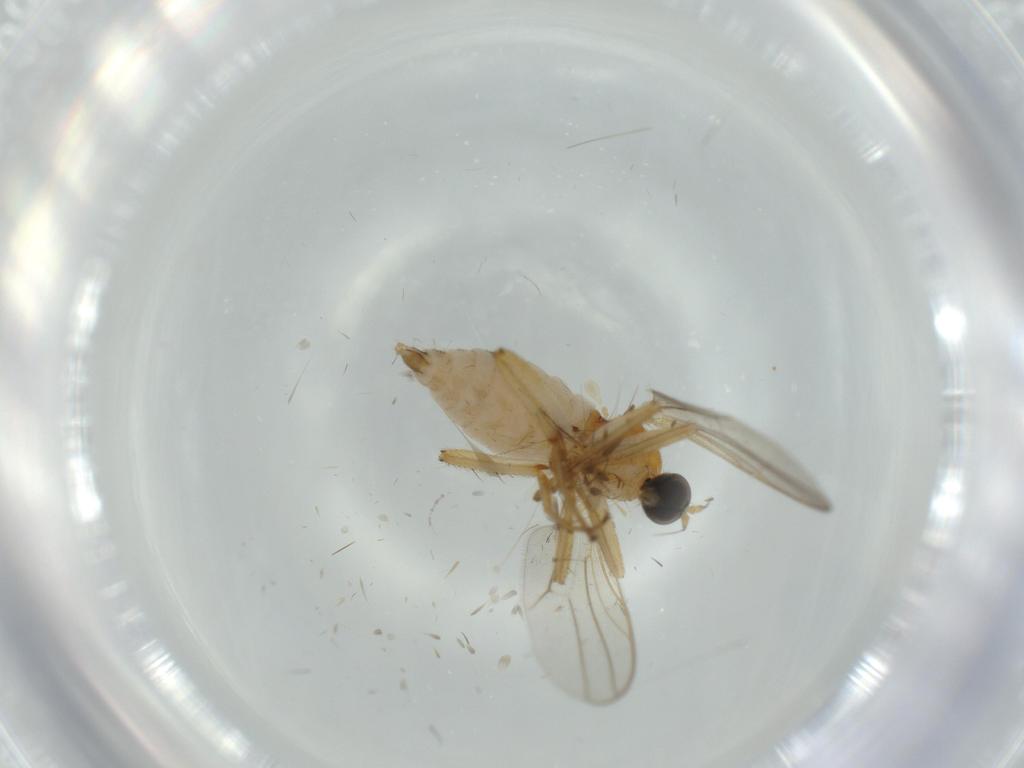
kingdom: Animalia
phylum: Arthropoda
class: Insecta
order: Diptera
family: Hybotidae
